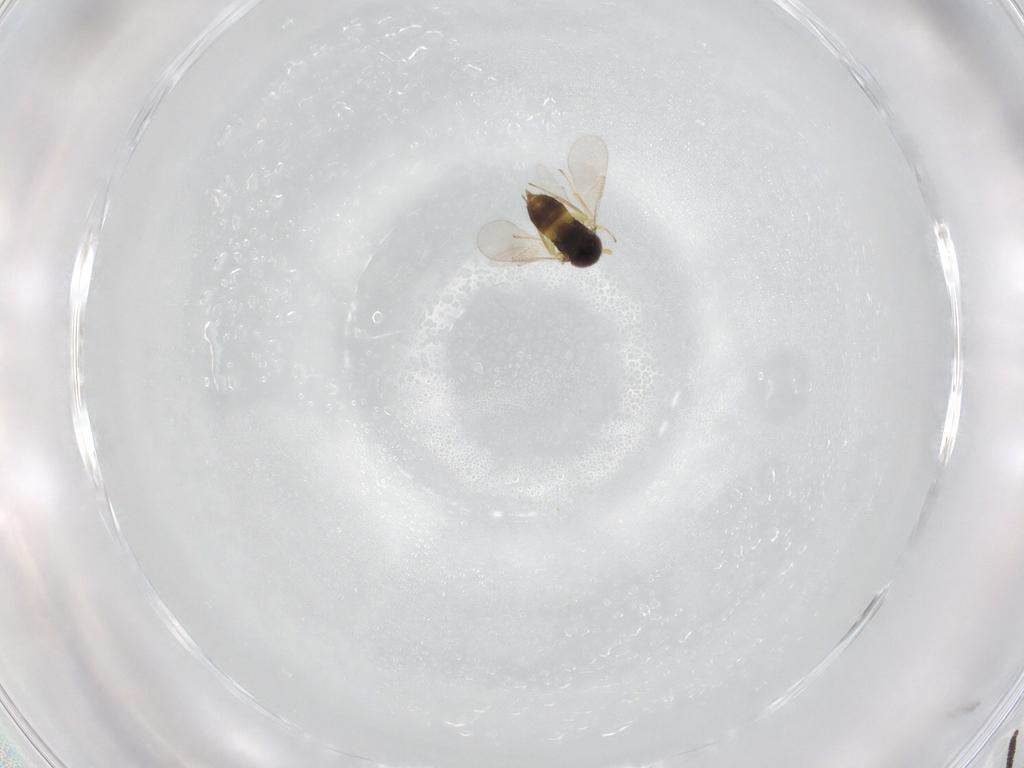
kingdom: Animalia
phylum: Arthropoda
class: Insecta
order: Hymenoptera
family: Aphelinidae
